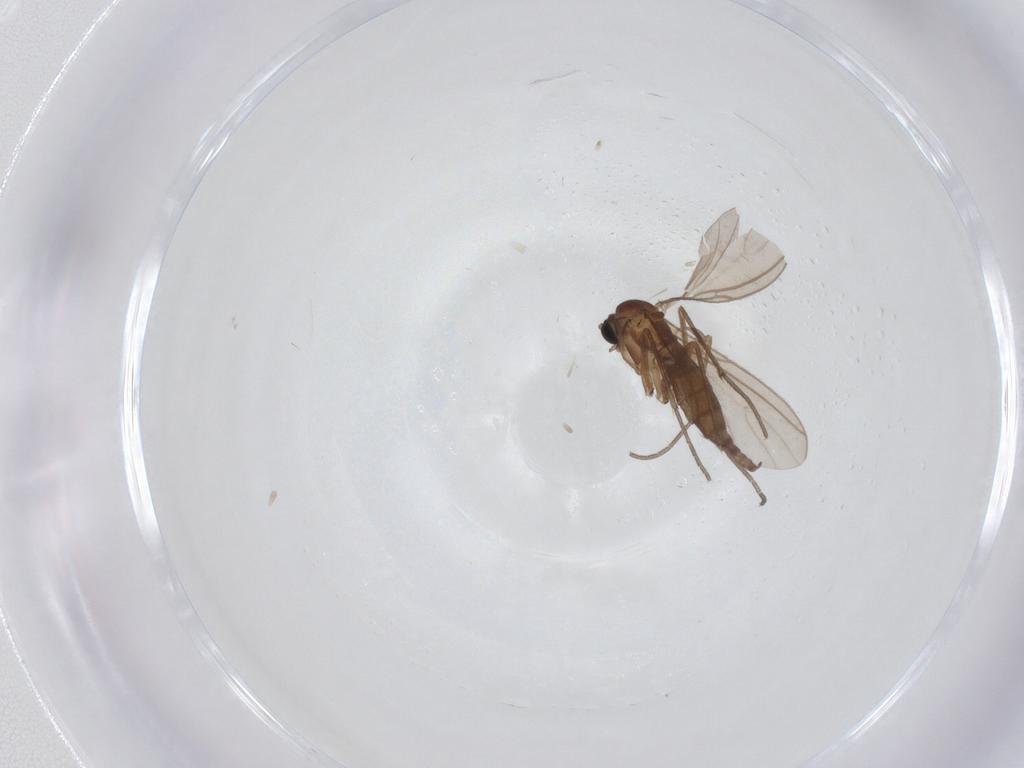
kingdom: Animalia
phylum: Arthropoda
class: Insecta
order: Diptera
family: Sciaridae
